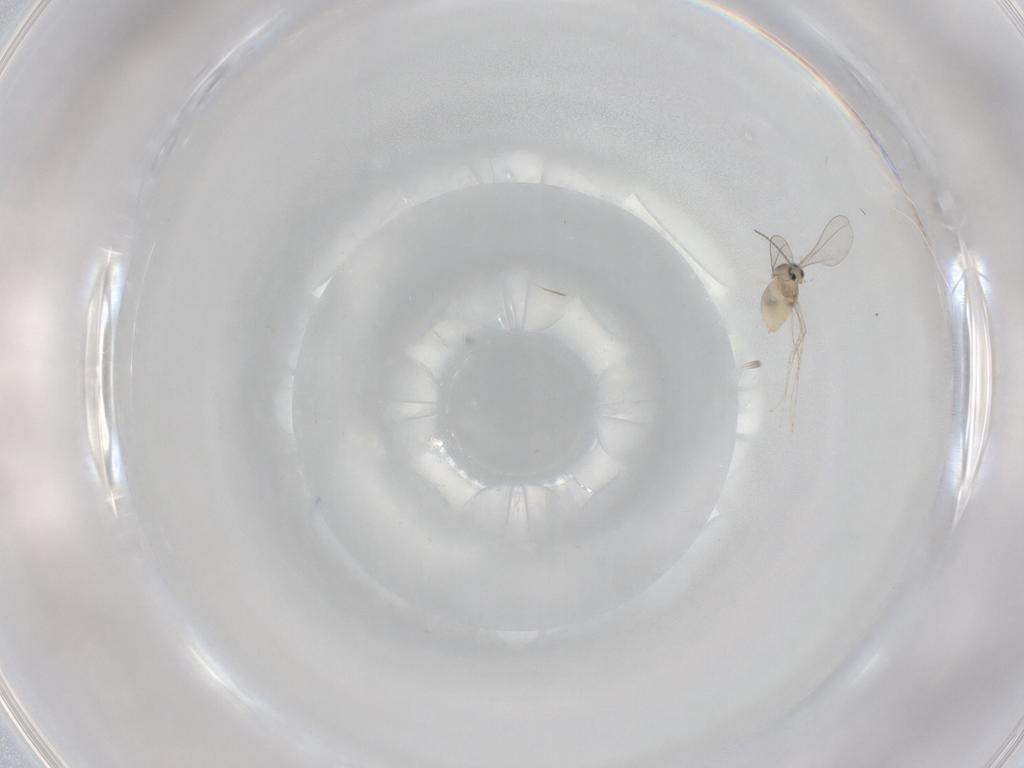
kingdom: Animalia
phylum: Arthropoda
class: Insecta
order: Diptera
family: Cecidomyiidae
